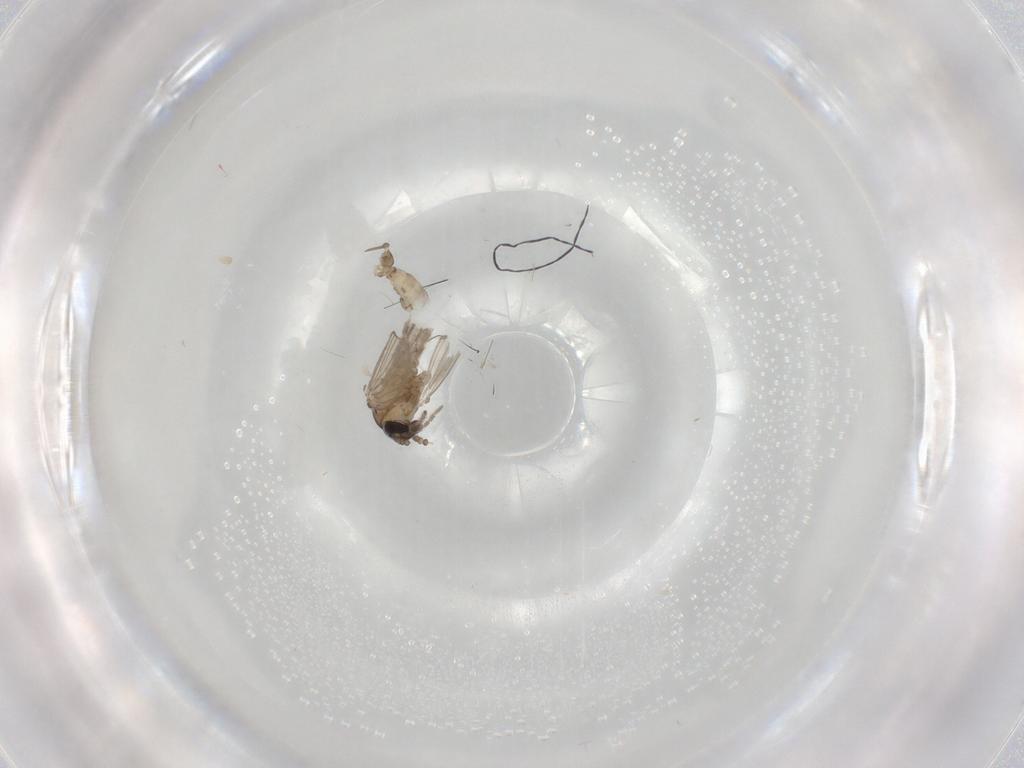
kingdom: Animalia
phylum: Arthropoda
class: Insecta
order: Diptera
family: Psychodidae
